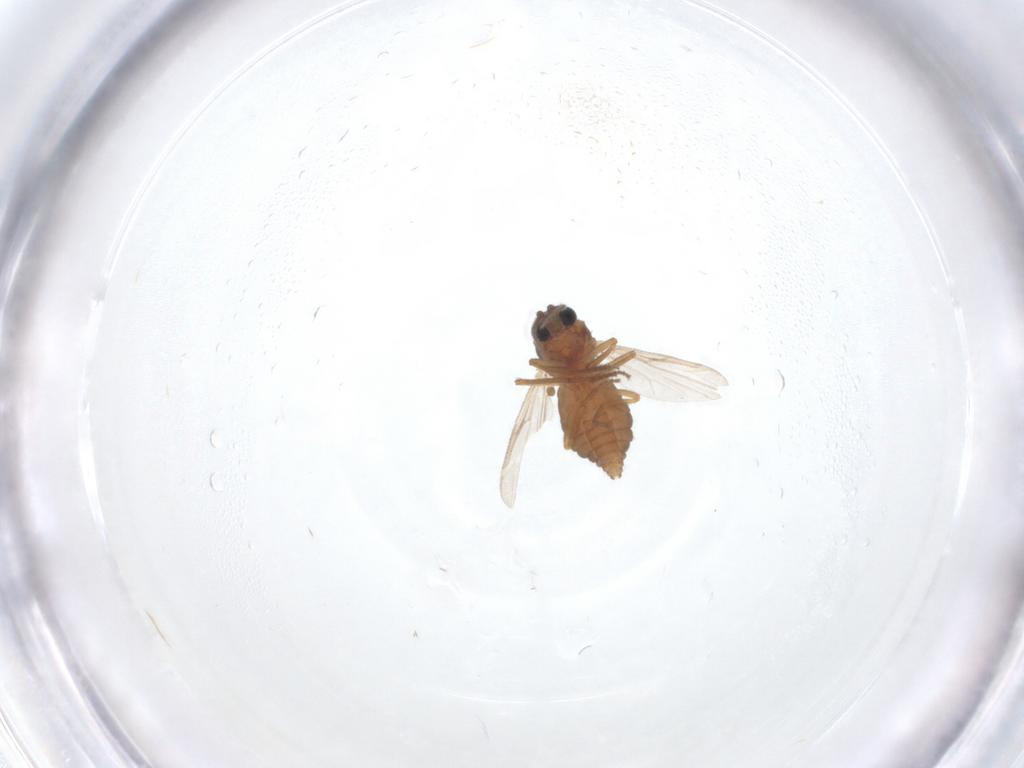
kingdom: Animalia
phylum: Arthropoda
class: Insecta
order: Diptera
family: Ceratopogonidae
